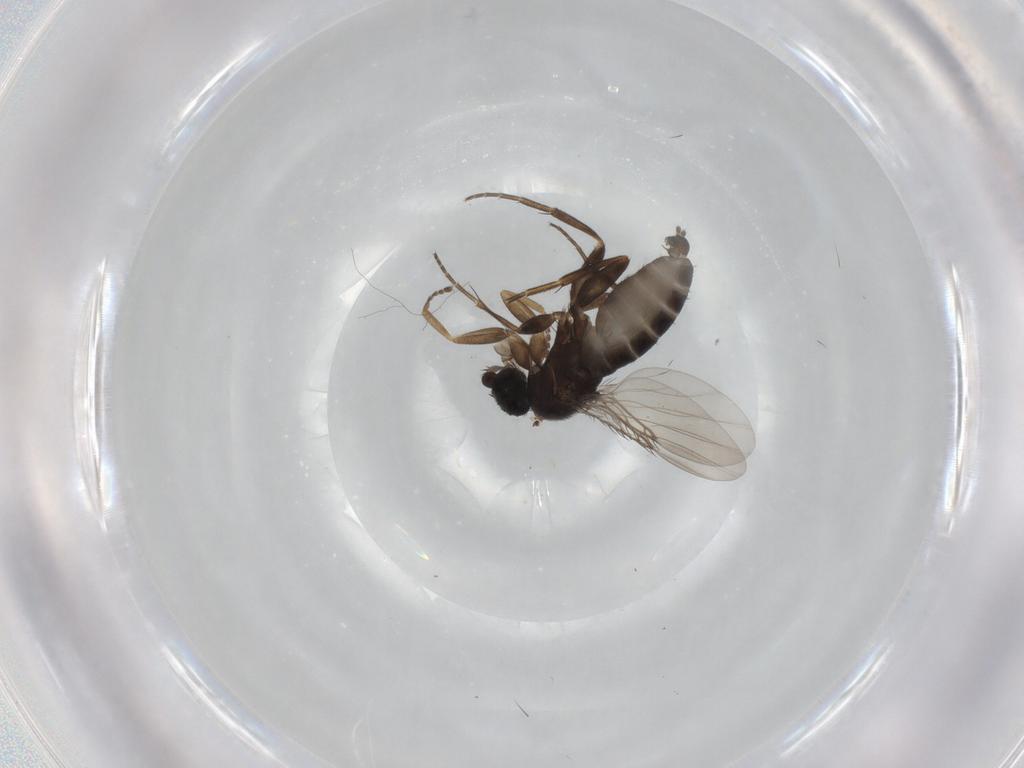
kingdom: Animalia
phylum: Arthropoda
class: Insecta
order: Diptera
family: Phoridae
